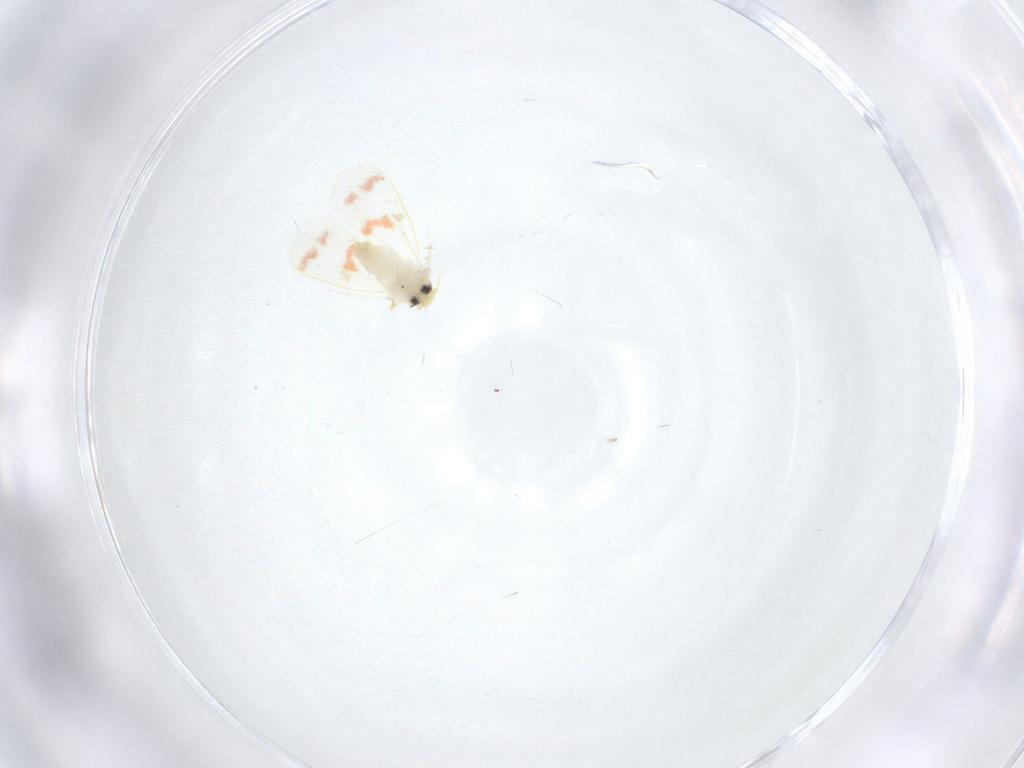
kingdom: Animalia
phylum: Arthropoda
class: Insecta
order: Hemiptera
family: Aleyrodidae
